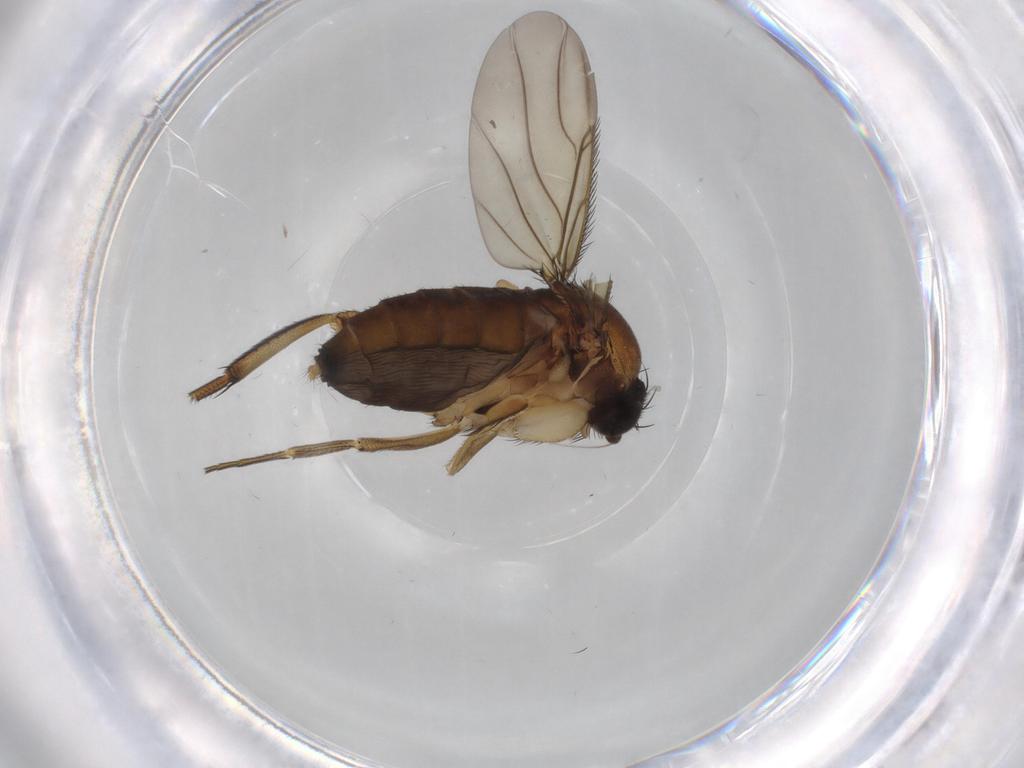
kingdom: Animalia
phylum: Arthropoda
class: Insecta
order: Diptera
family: Phoridae
